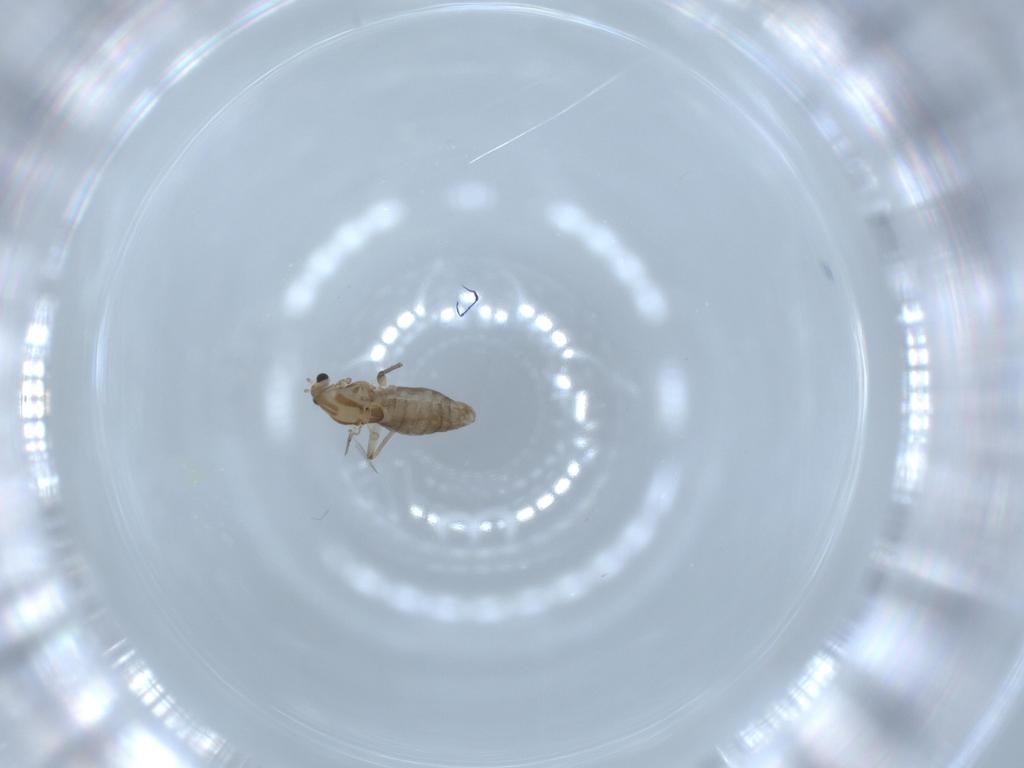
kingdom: Animalia
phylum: Arthropoda
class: Insecta
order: Diptera
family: Chironomidae
